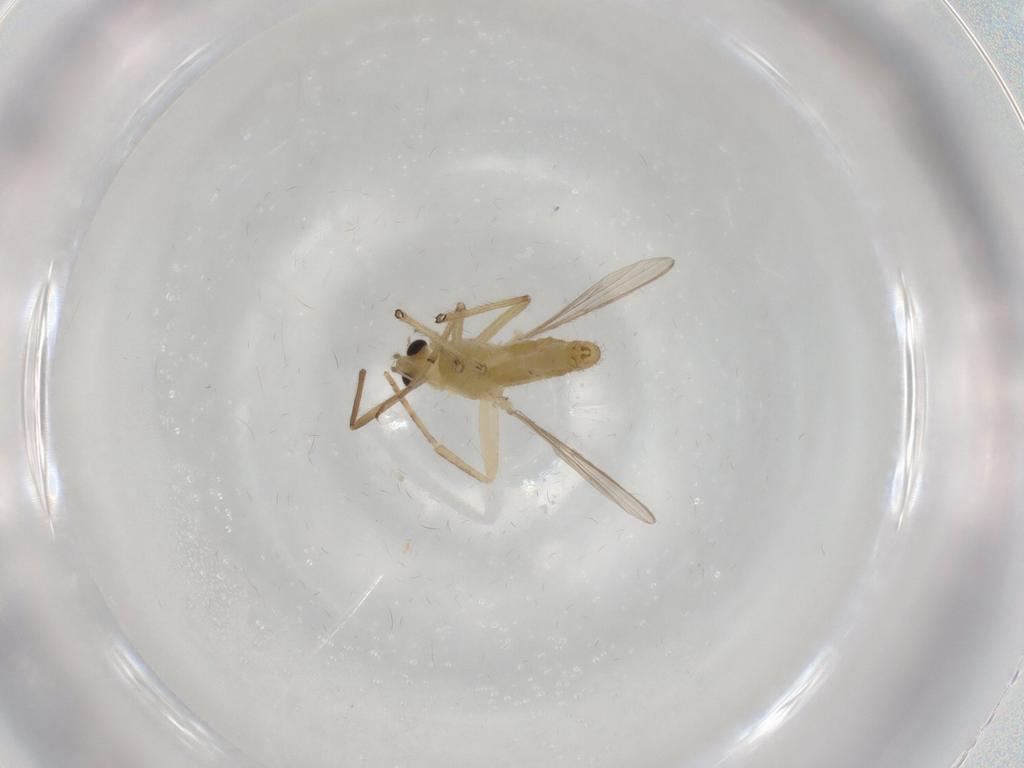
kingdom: Animalia
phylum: Arthropoda
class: Insecta
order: Diptera
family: Chironomidae
